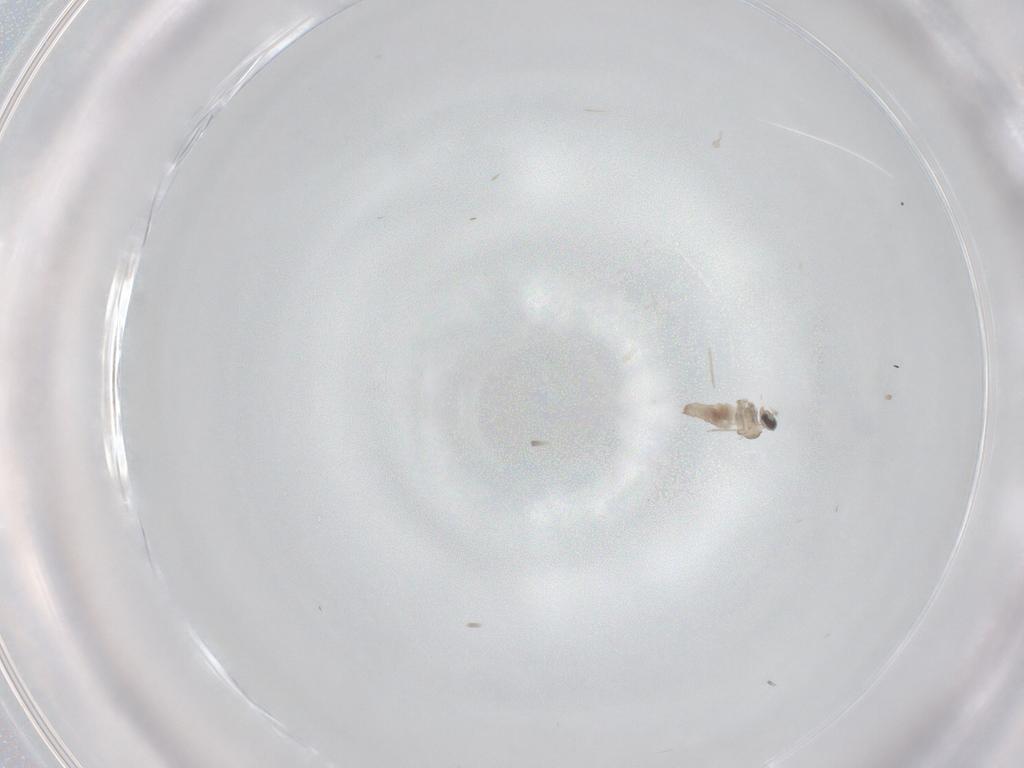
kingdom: Animalia
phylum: Arthropoda
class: Insecta
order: Diptera
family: Cecidomyiidae
